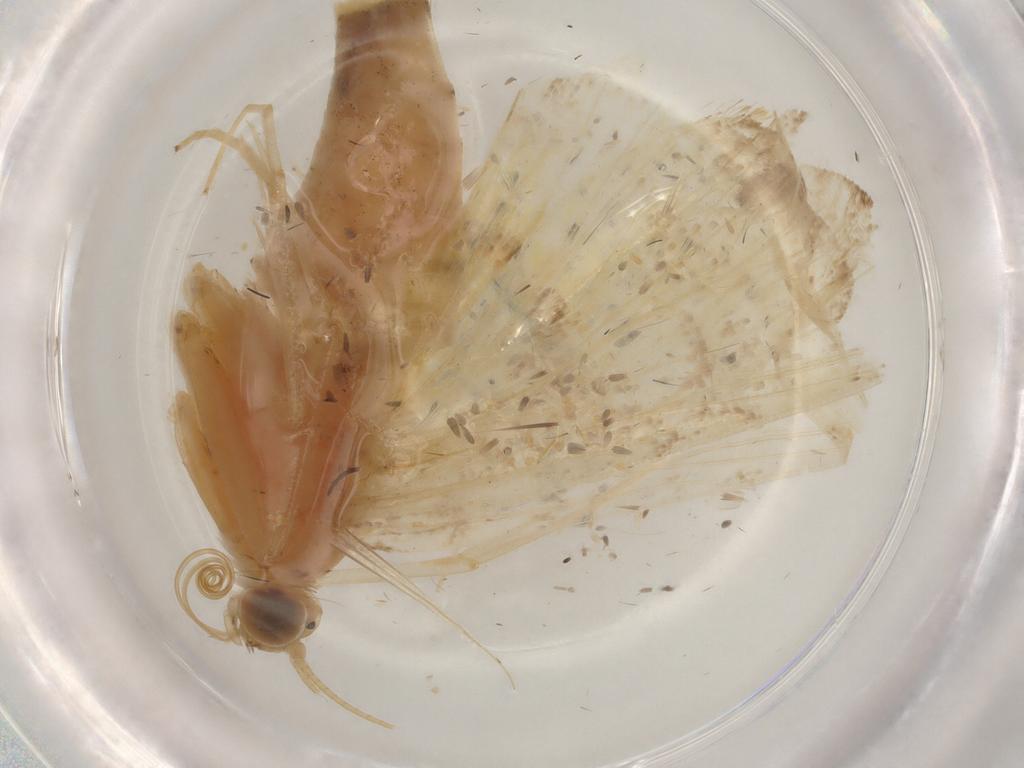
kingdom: Animalia
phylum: Arthropoda
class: Insecta
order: Lepidoptera
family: Crambidae
